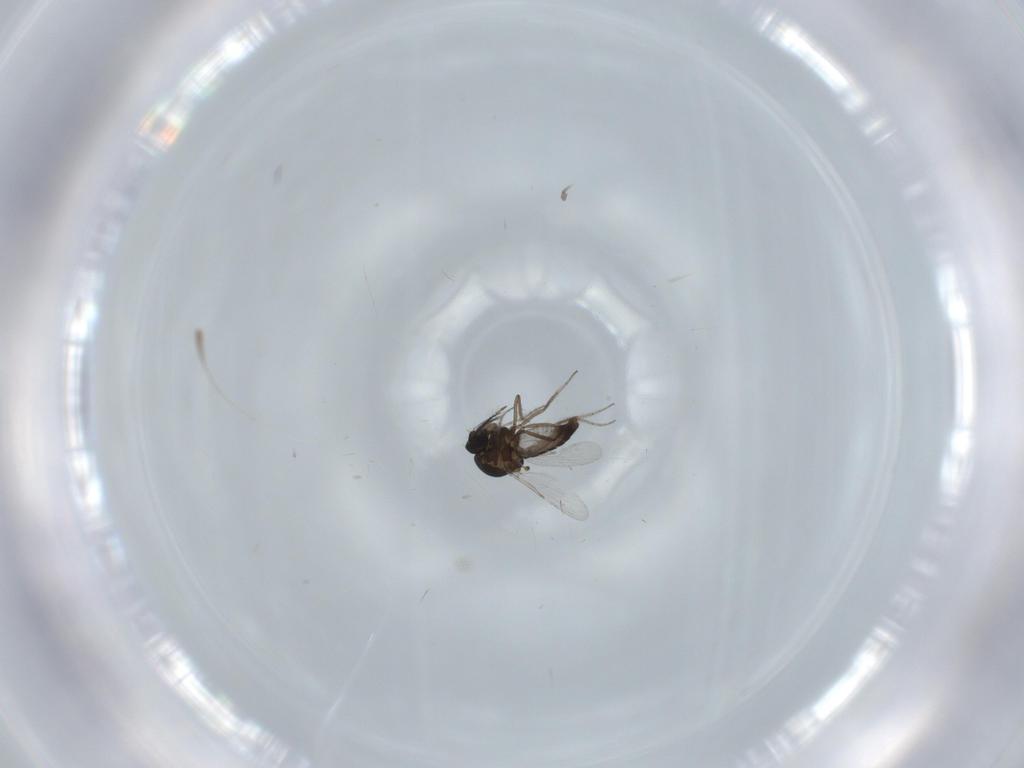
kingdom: Animalia
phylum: Arthropoda
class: Insecta
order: Diptera
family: Ceratopogonidae
